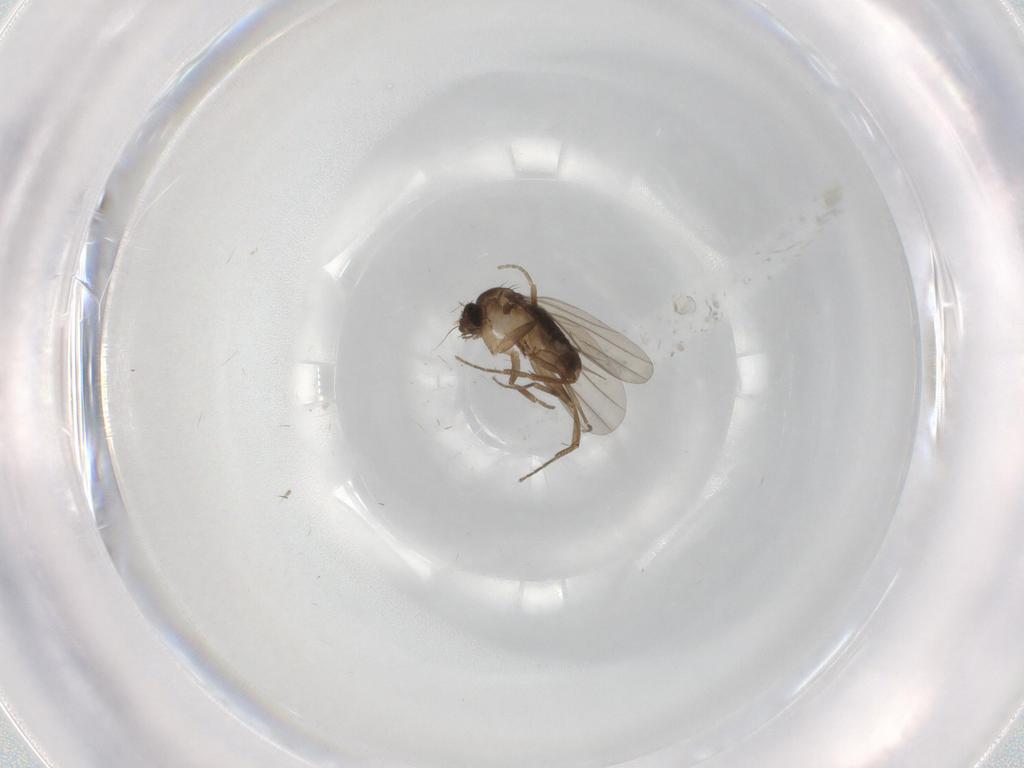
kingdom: Animalia
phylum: Arthropoda
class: Insecta
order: Diptera
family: Phoridae
